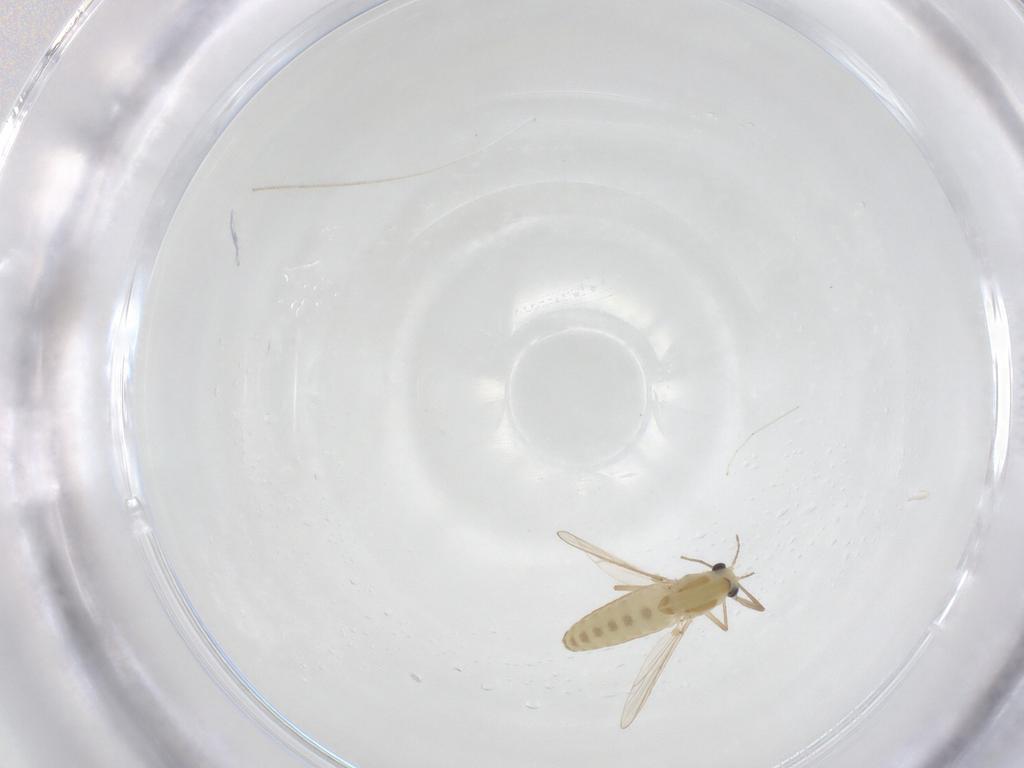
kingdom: Animalia
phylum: Arthropoda
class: Insecta
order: Diptera
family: Chironomidae
